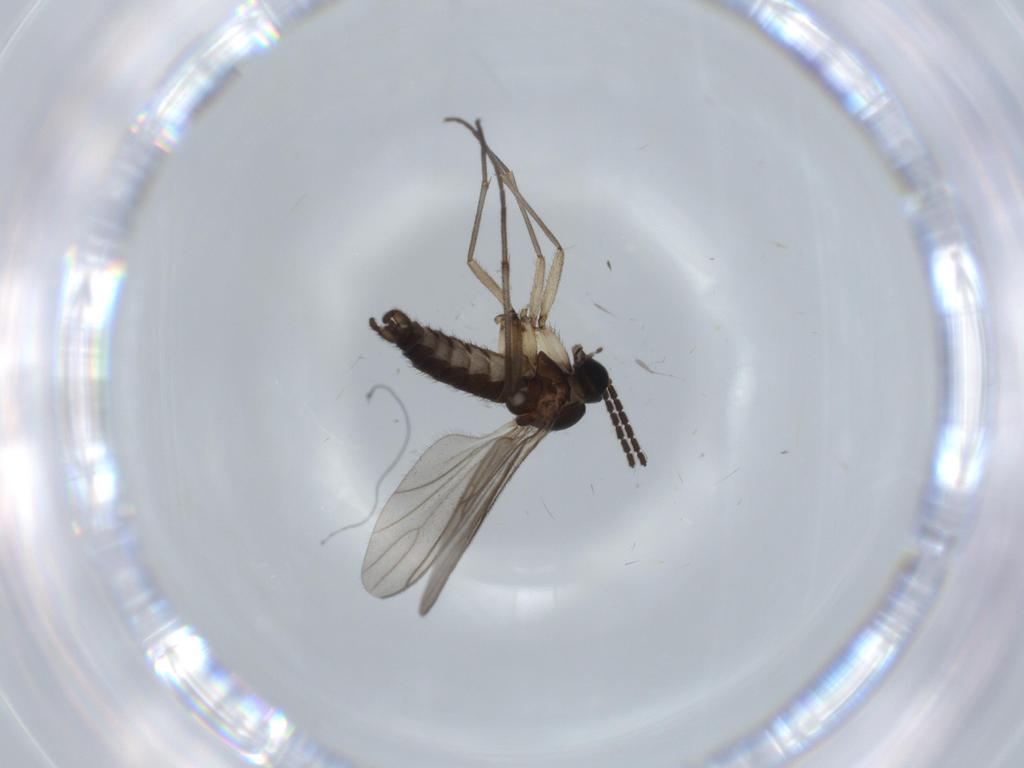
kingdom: Animalia
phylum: Arthropoda
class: Insecta
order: Diptera
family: Sciaridae
